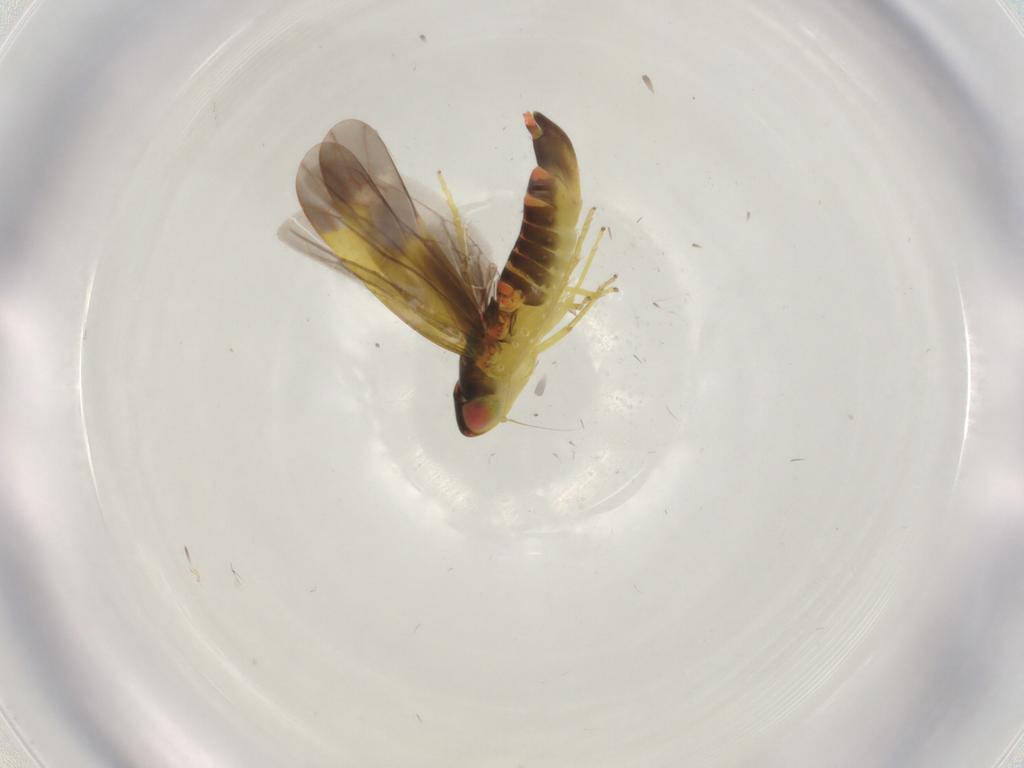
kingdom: Animalia
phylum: Arthropoda
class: Insecta
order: Hemiptera
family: Cicadellidae
